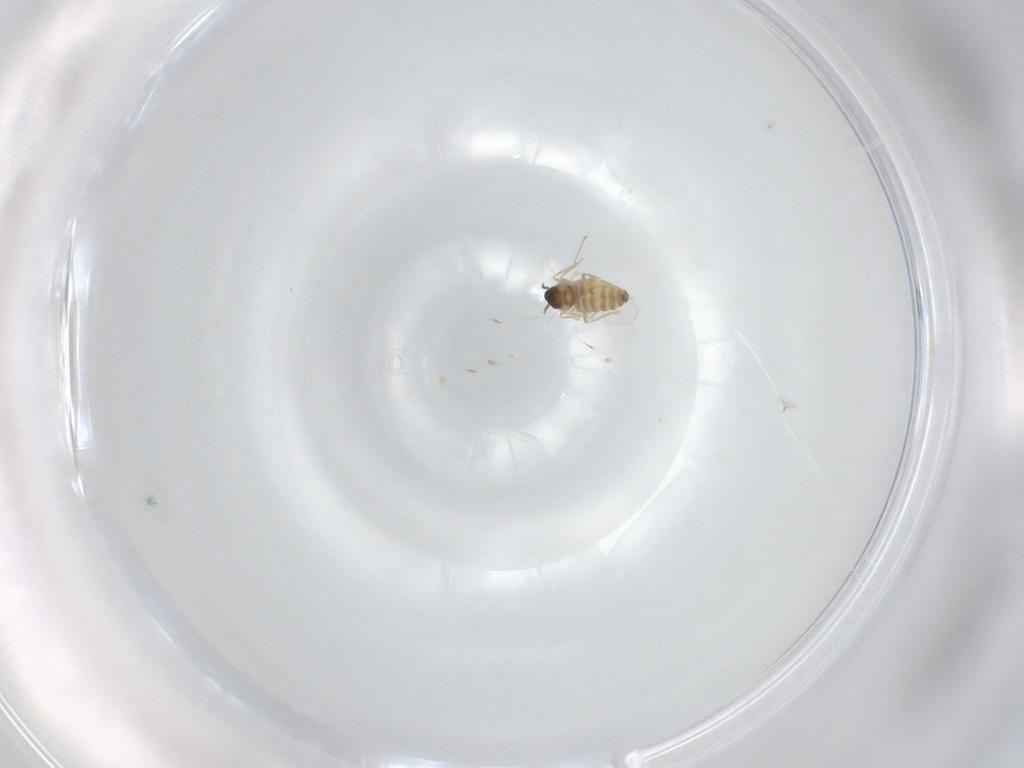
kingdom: Animalia
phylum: Arthropoda
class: Insecta
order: Diptera
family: Cecidomyiidae
